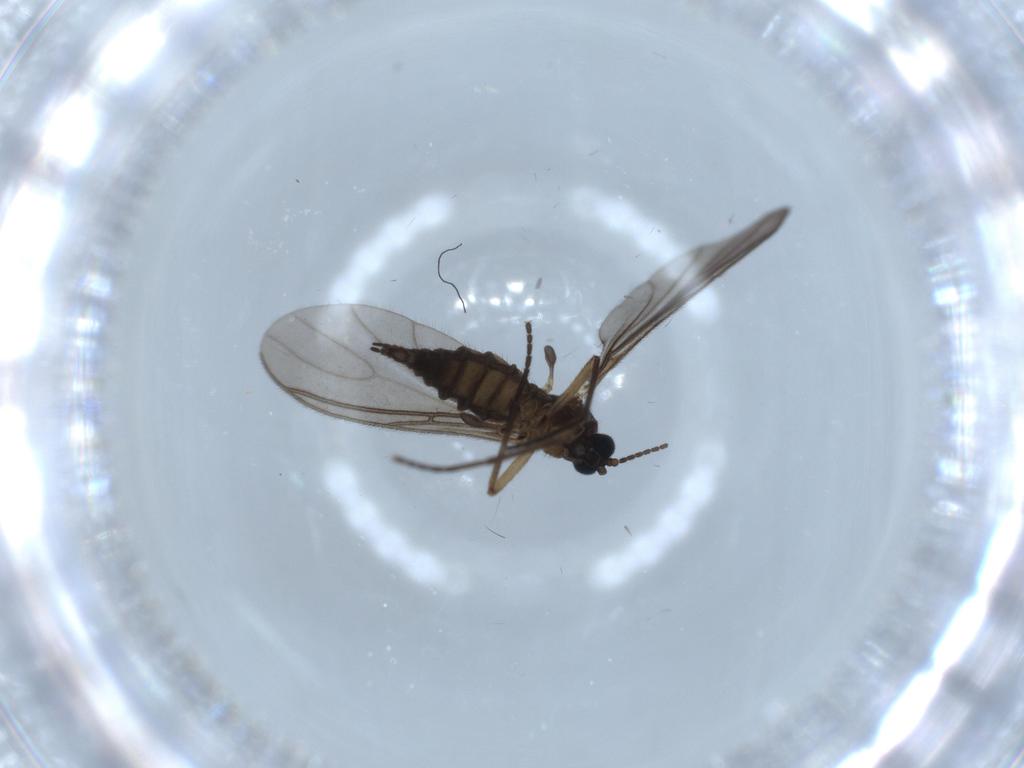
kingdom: Animalia
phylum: Arthropoda
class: Insecta
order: Diptera
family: Sciaridae
